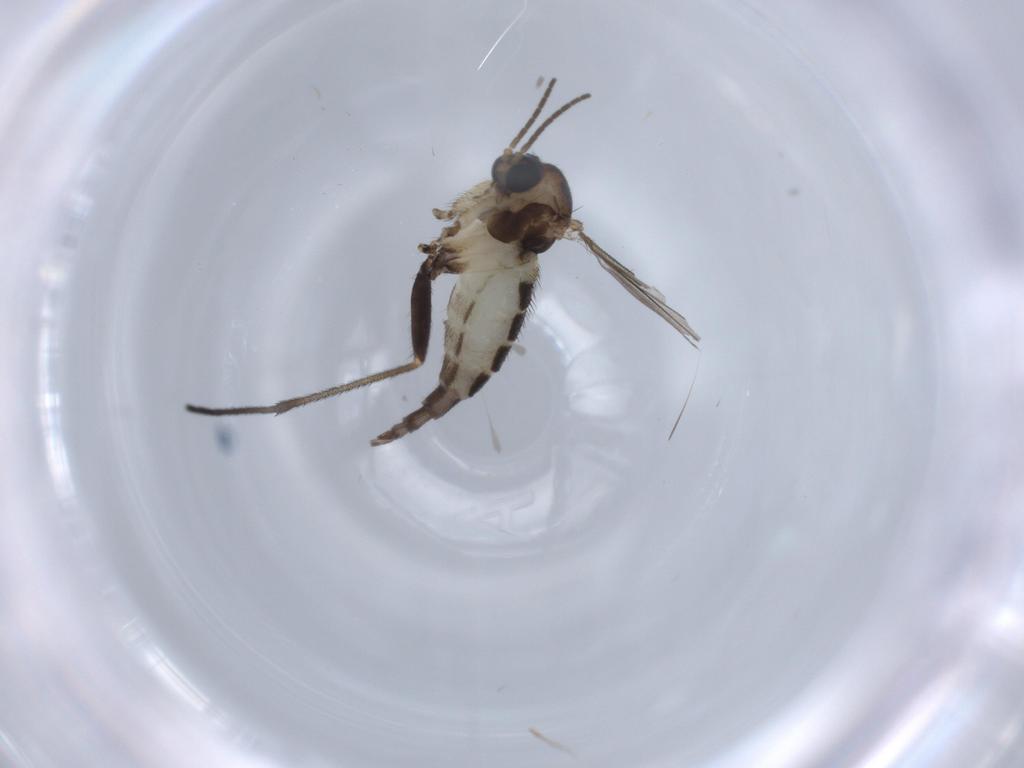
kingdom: Animalia
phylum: Arthropoda
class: Insecta
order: Diptera
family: Sciaridae
